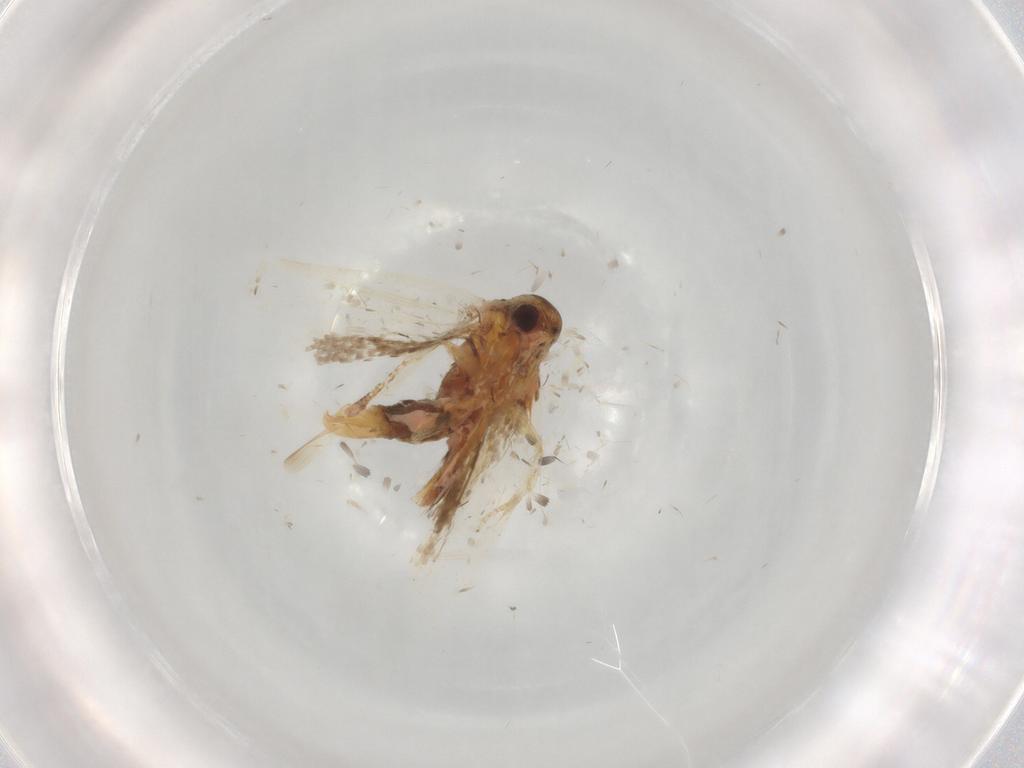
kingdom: Animalia
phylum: Arthropoda
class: Insecta
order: Lepidoptera
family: Oecophoridae
